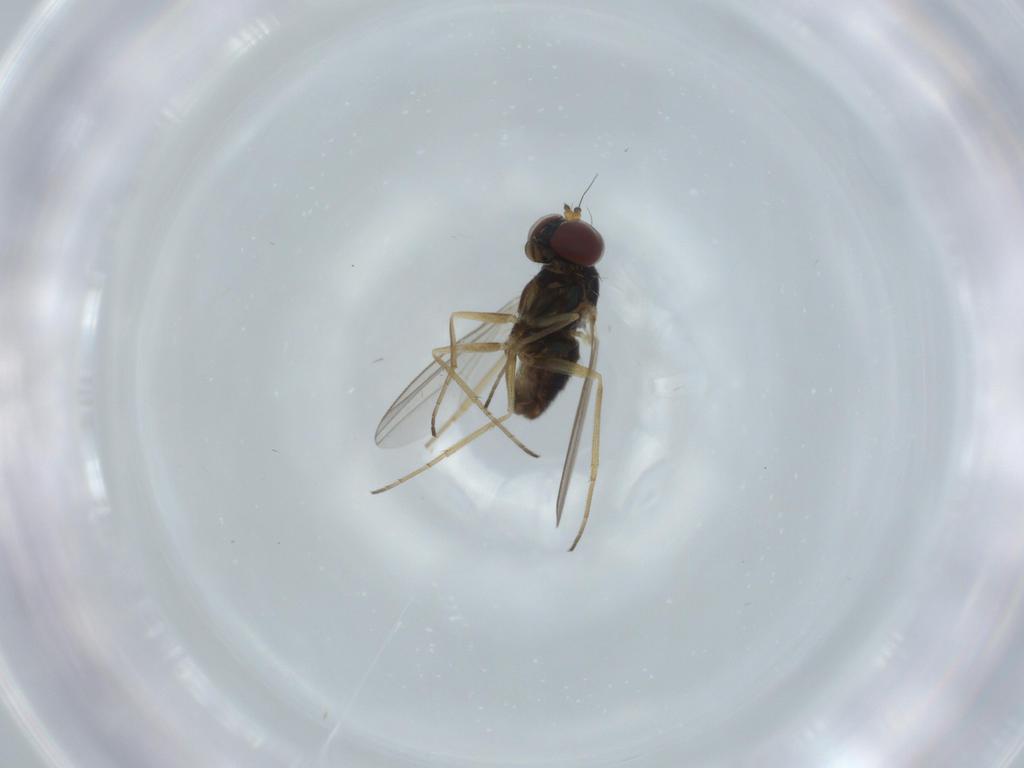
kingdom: Animalia
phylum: Arthropoda
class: Insecta
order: Diptera
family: Dolichopodidae
